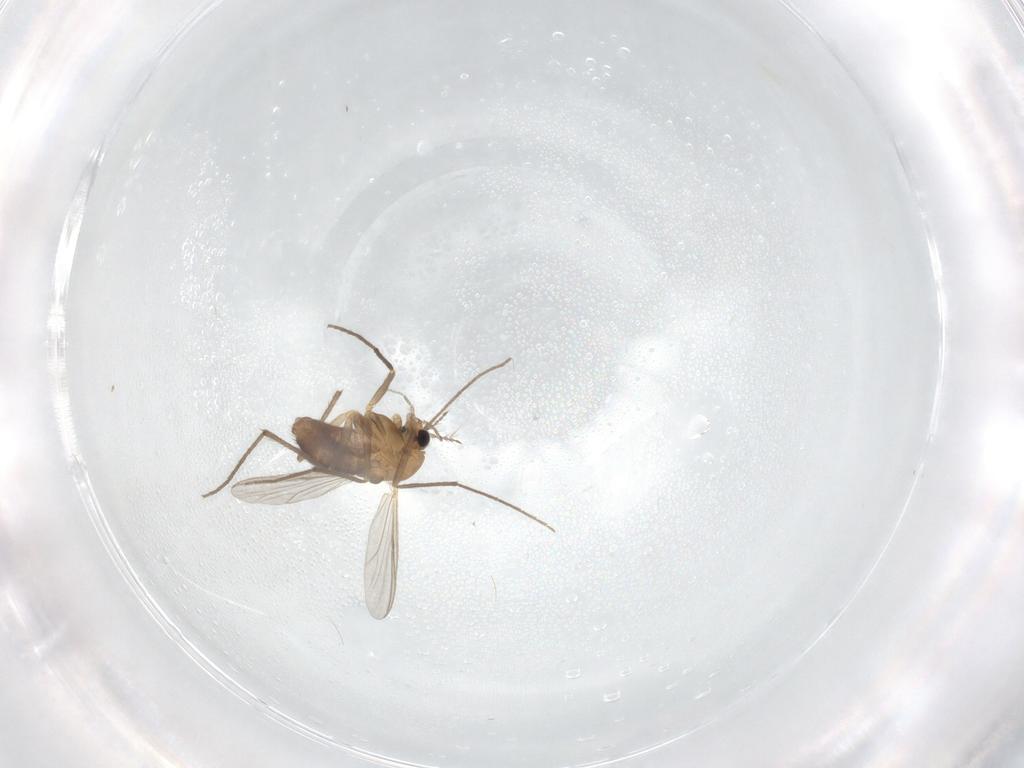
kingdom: Animalia
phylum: Arthropoda
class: Insecta
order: Diptera
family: Chironomidae
